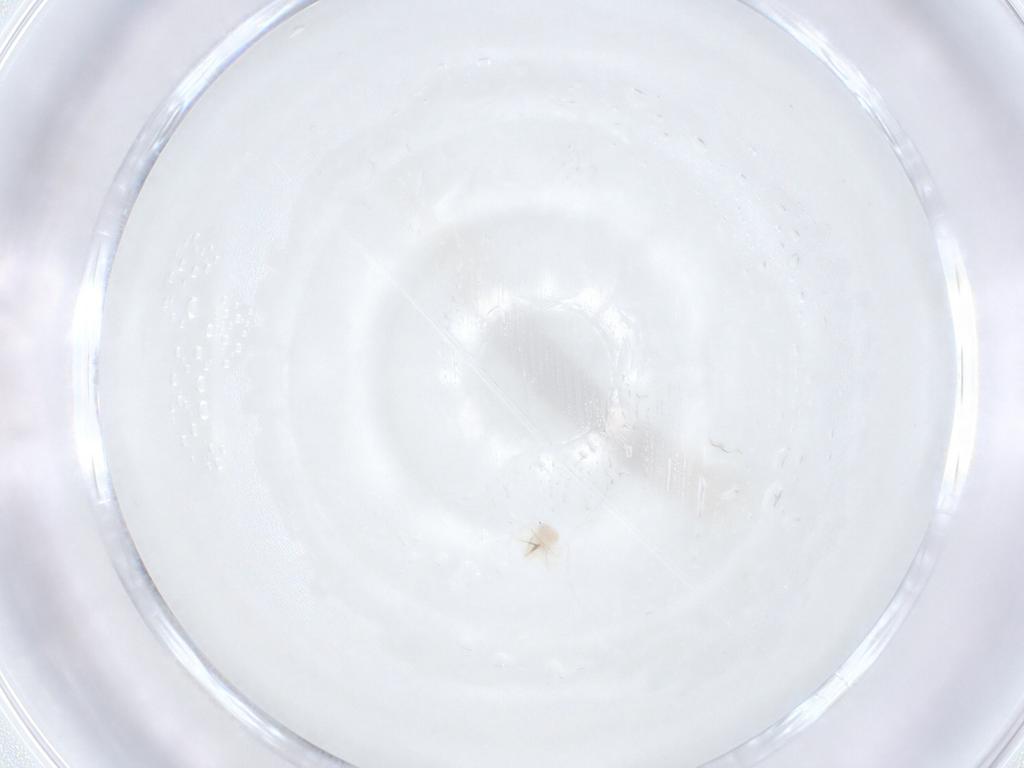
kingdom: Animalia
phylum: Arthropoda
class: Arachnida
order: Trombidiformes
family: Anystidae
